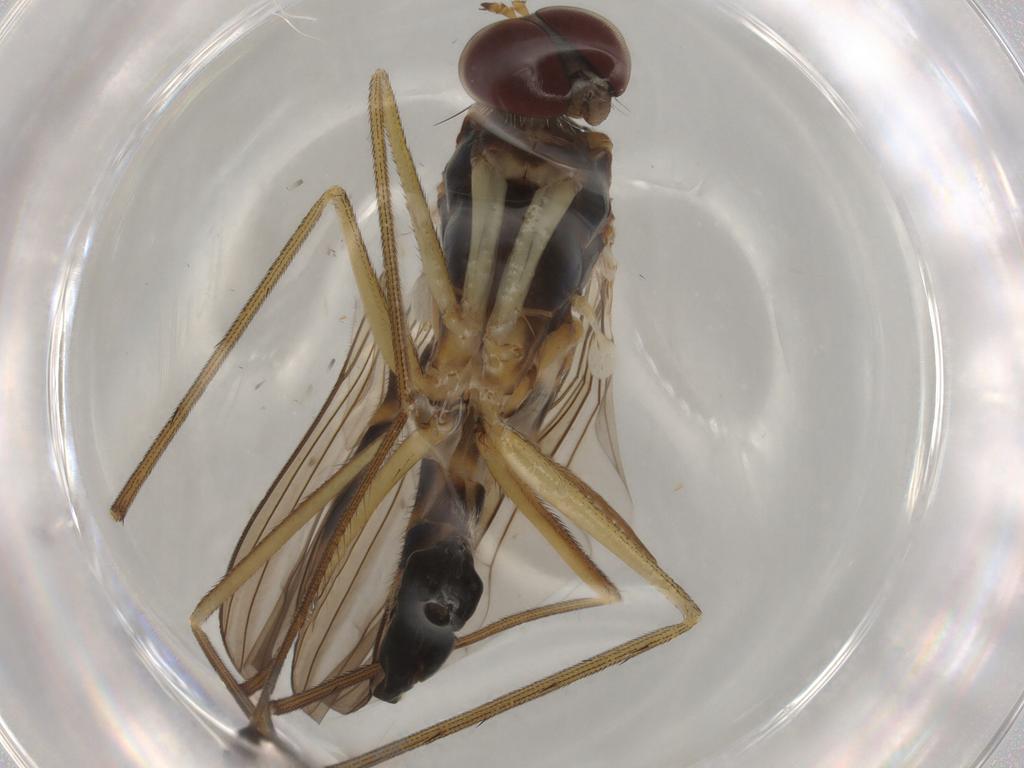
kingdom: Animalia
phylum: Arthropoda
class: Insecta
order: Diptera
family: Dolichopodidae
